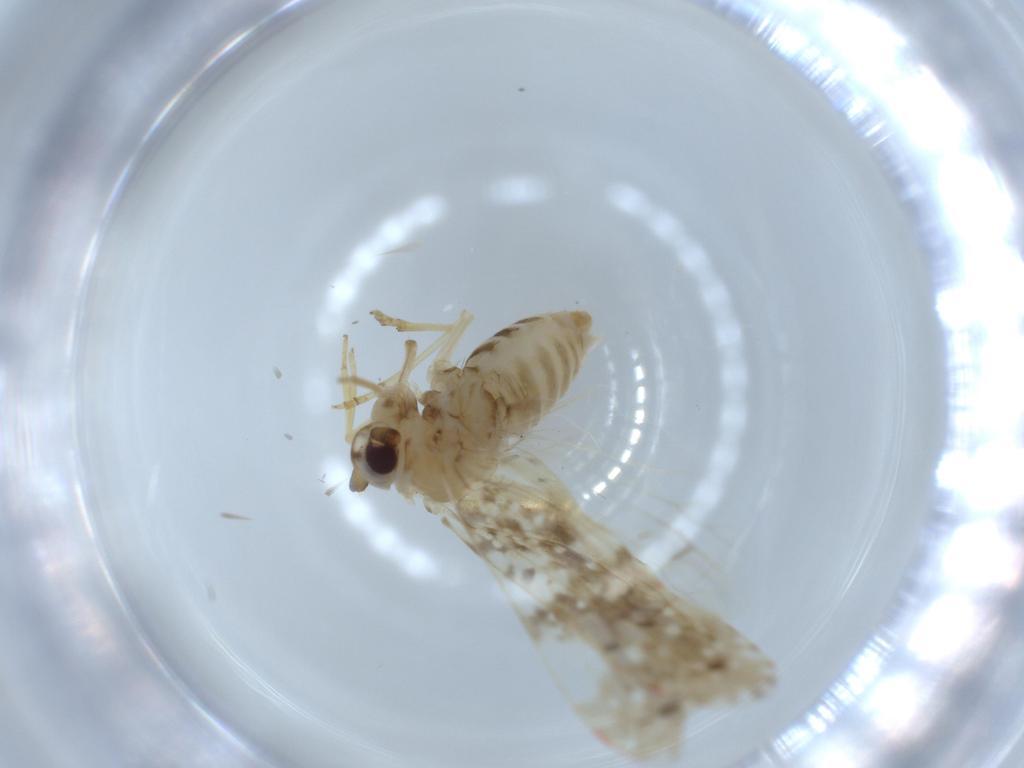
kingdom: Animalia
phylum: Arthropoda
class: Insecta
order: Hemiptera
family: Derbidae
